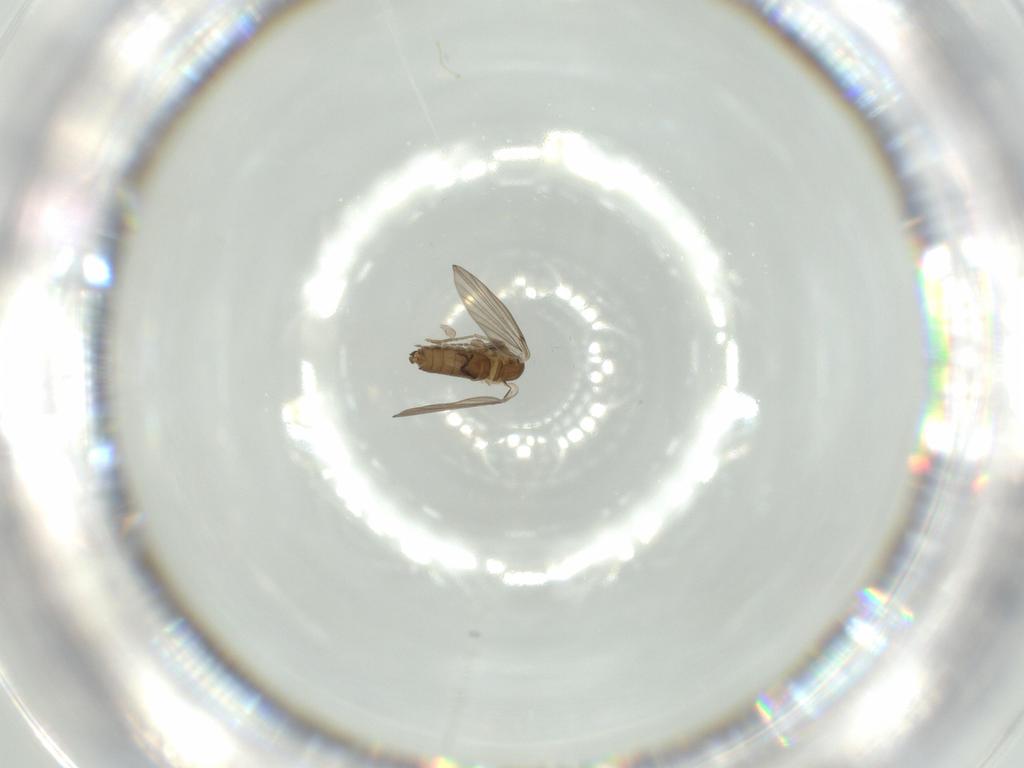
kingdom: Animalia
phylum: Arthropoda
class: Insecta
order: Diptera
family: Psychodidae
